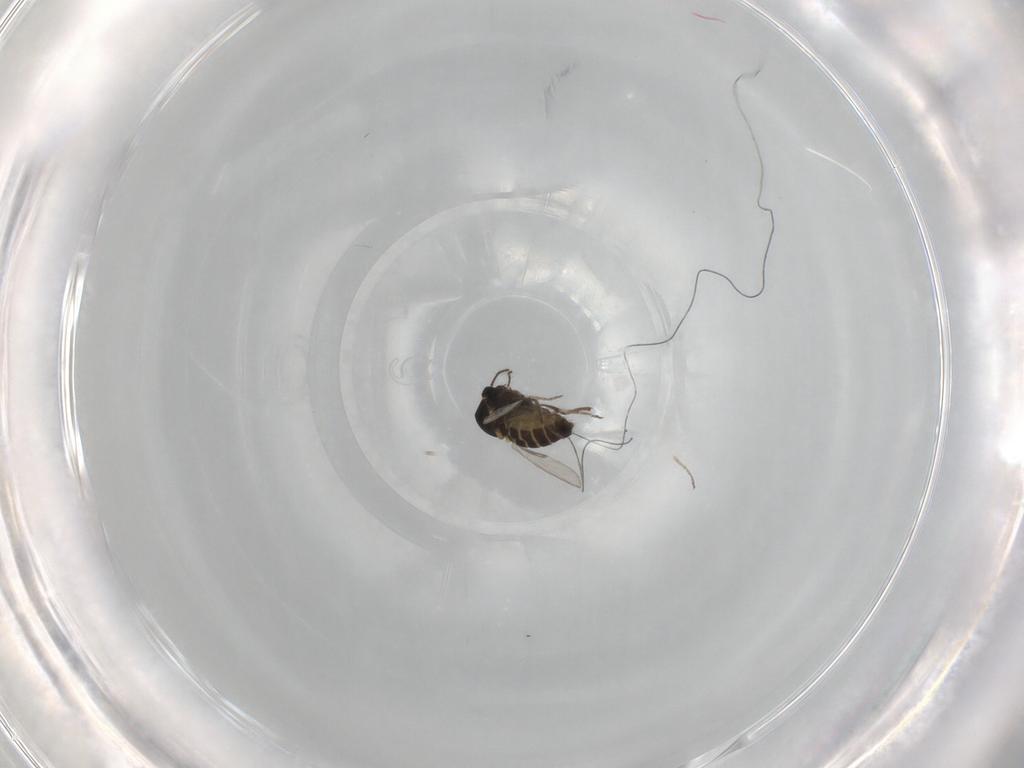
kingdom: Animalia
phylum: Arthropoda
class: Insecta
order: Diptera
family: Ceratopogonidae
